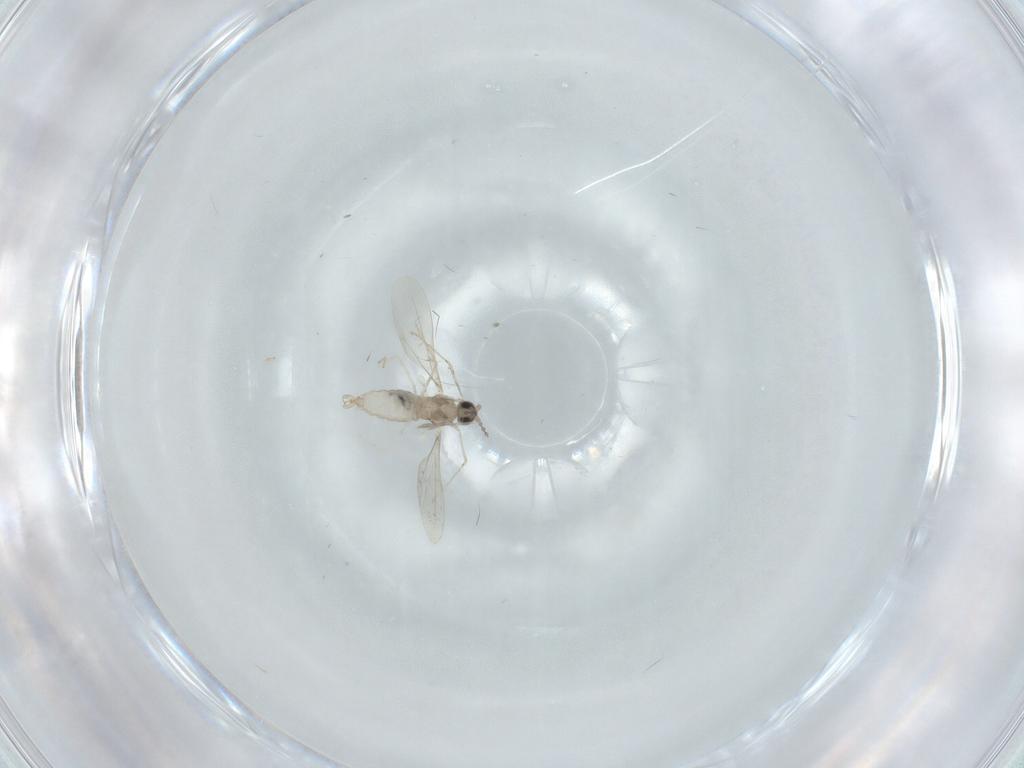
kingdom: Animalia
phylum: Arthropoda
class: Insecta
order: Diptera
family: Cecidomyiidae
